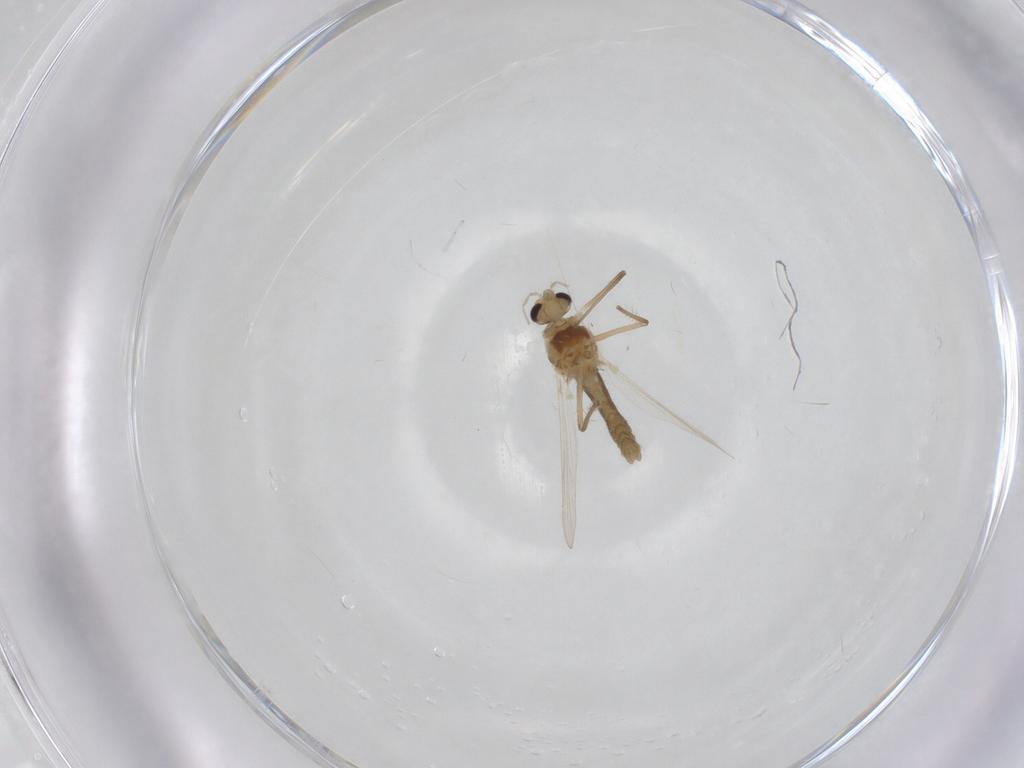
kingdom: Animalia
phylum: Arthropoda
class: Insecta
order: Diptera
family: Chironomidae
